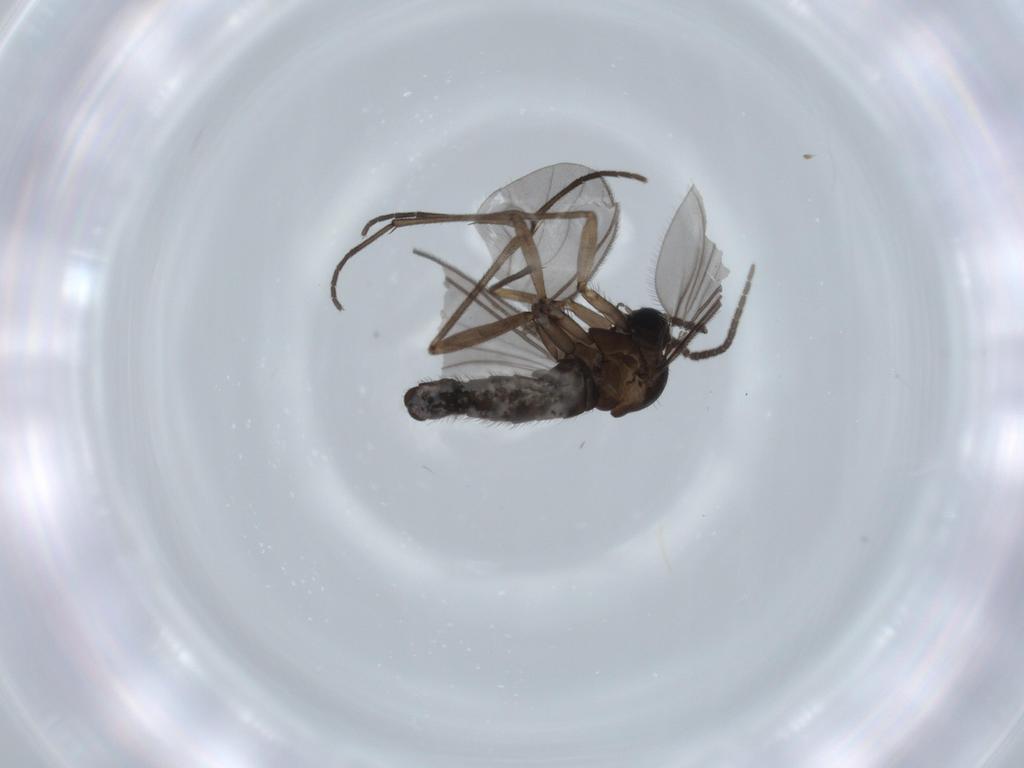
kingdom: Animalia
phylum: Arthropoda
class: Insecta
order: Diptera
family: Sciaridae
